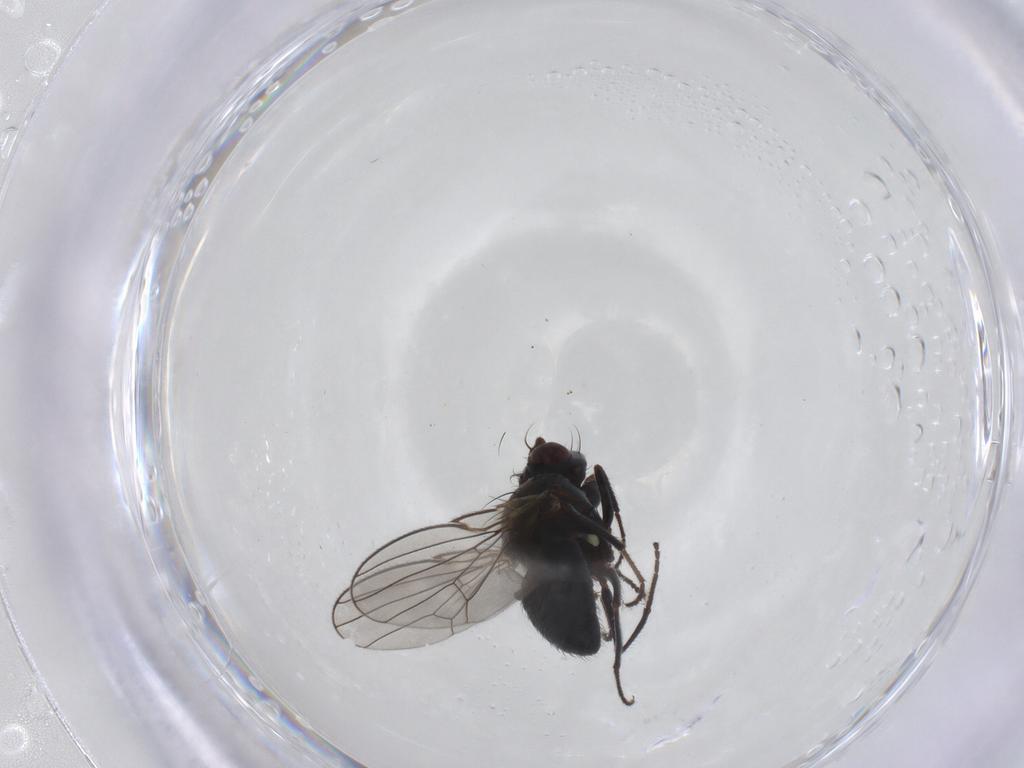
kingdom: Animalia
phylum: Arthropoda
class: Insecta
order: Diptera
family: Ephydridae
